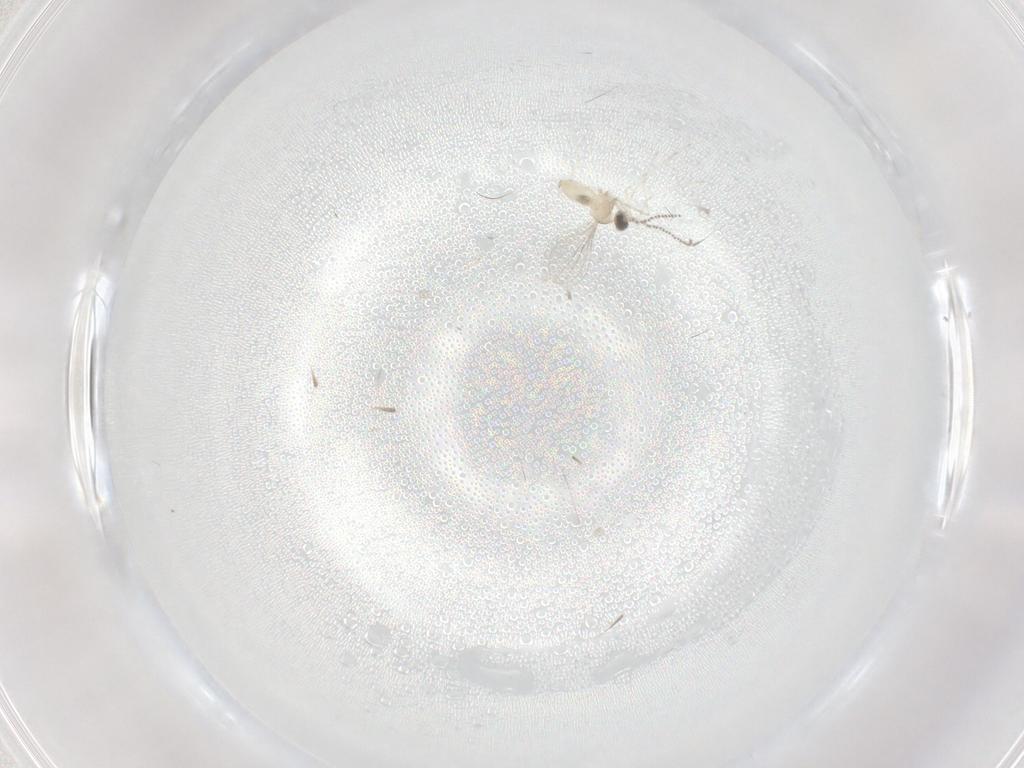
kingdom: Animalia
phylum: Arthropoda
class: Insecta
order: Diptera
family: Cecidomyiidae
